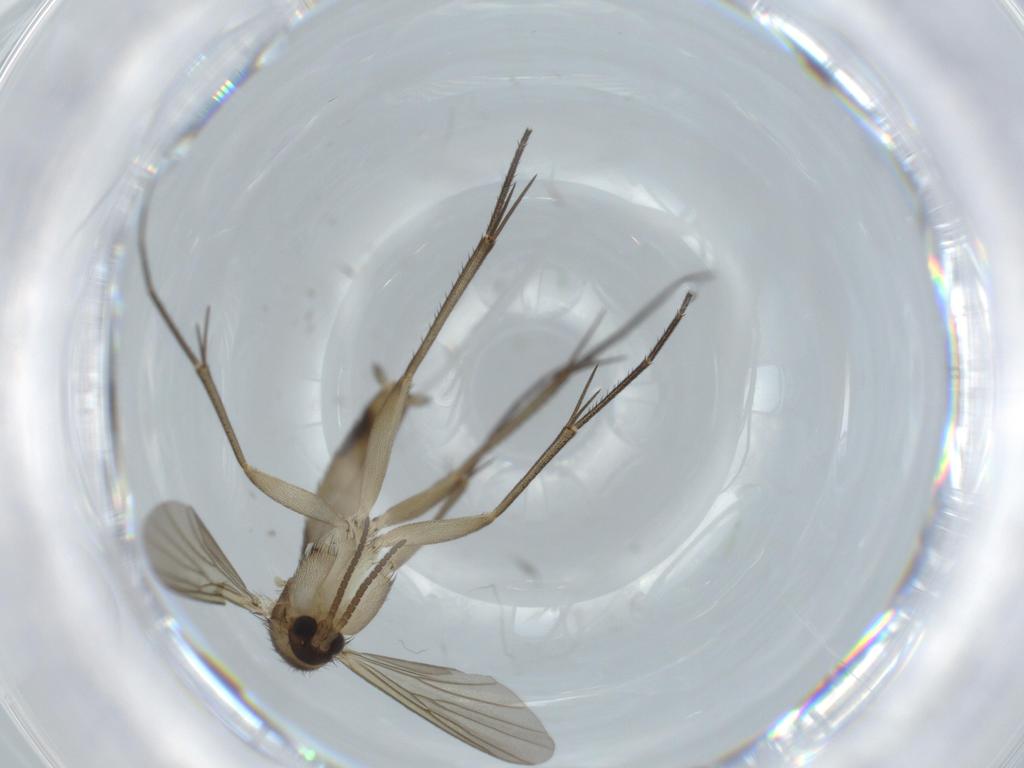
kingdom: Animalia
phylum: Arthropoda
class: Insecta
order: Diptera
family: Mycetophilidae
